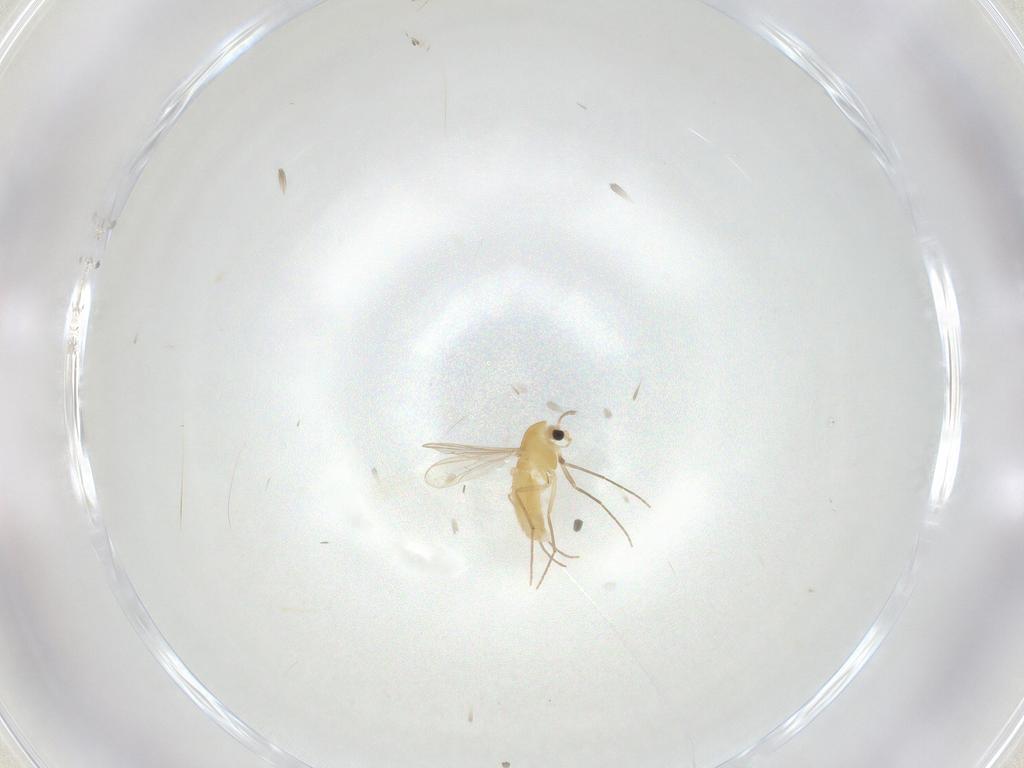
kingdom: Animalia
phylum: Arthropoda
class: Insecta
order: Diptera
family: Chironomidae
